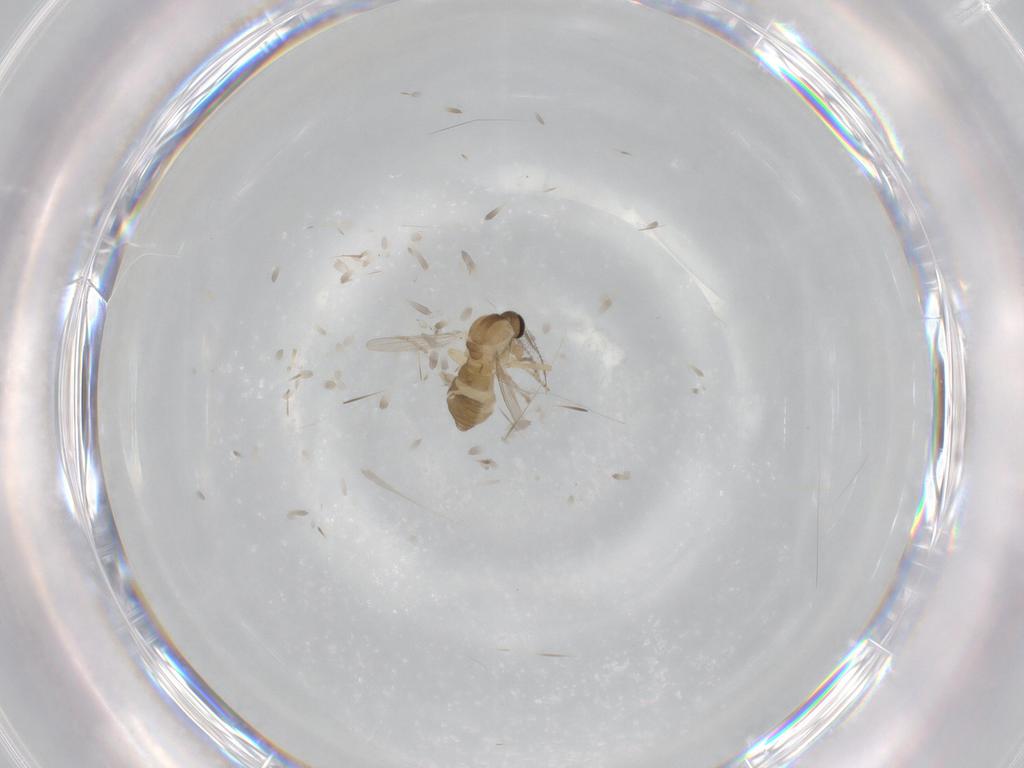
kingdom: Animalia
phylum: Arthropoda
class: Insecta
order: Diptera
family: Ceratopogonidae
